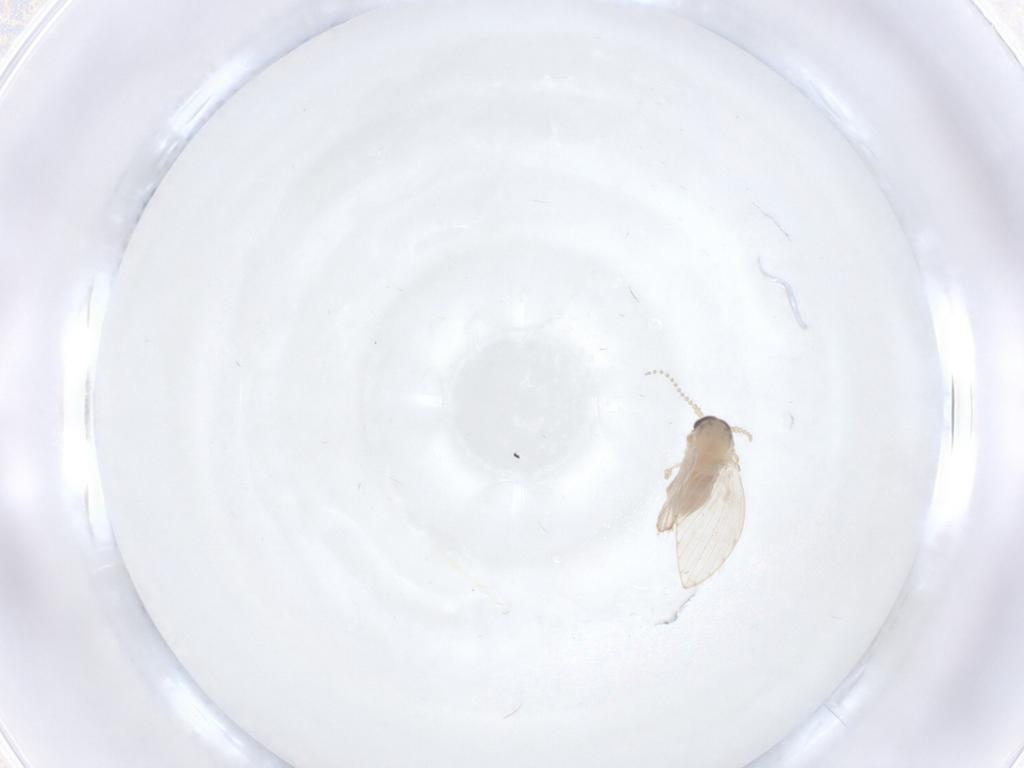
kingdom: Animalia
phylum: Arthropoda
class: Insecta
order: Diptera
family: Psychodidae
